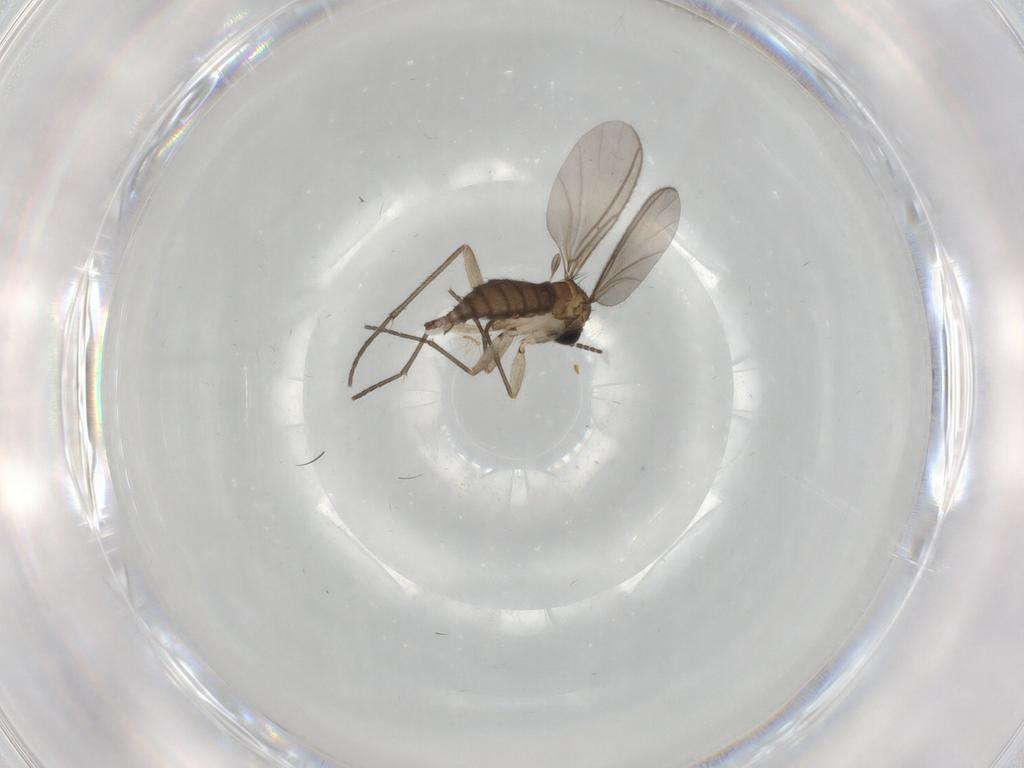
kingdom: Animalia
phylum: Arthropoda
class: Insecta
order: Diptera
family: Sciaridae
